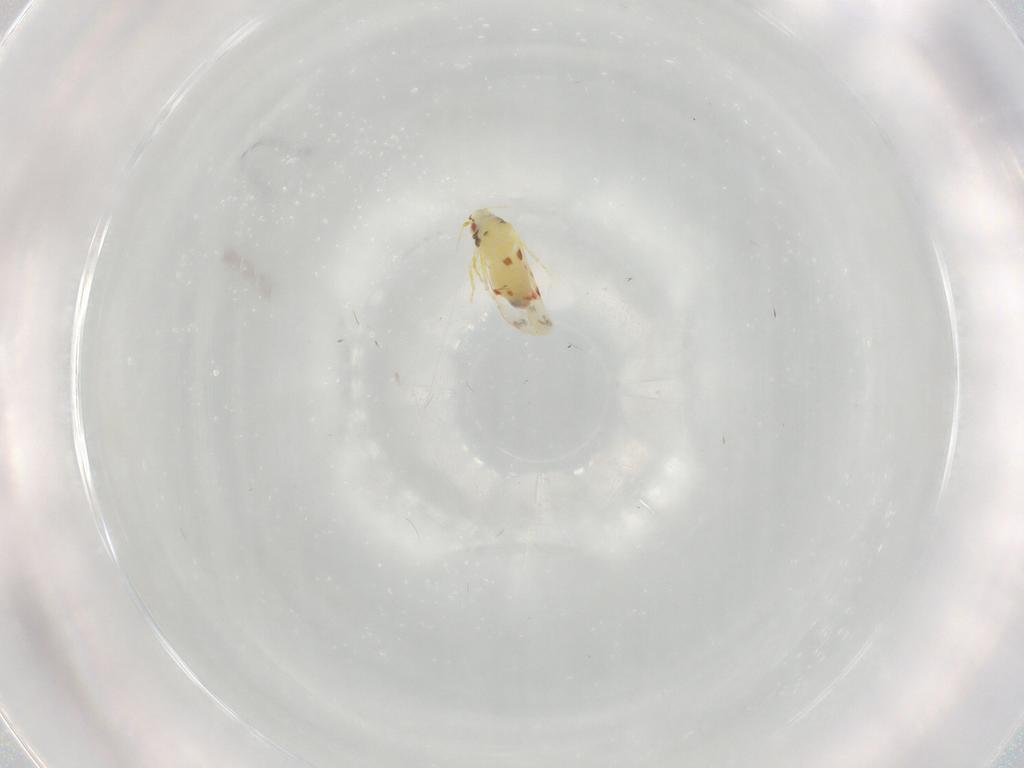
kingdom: Animalia
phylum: Arthropoda
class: Insecta
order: Hemiptera
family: Aleyrodidae
